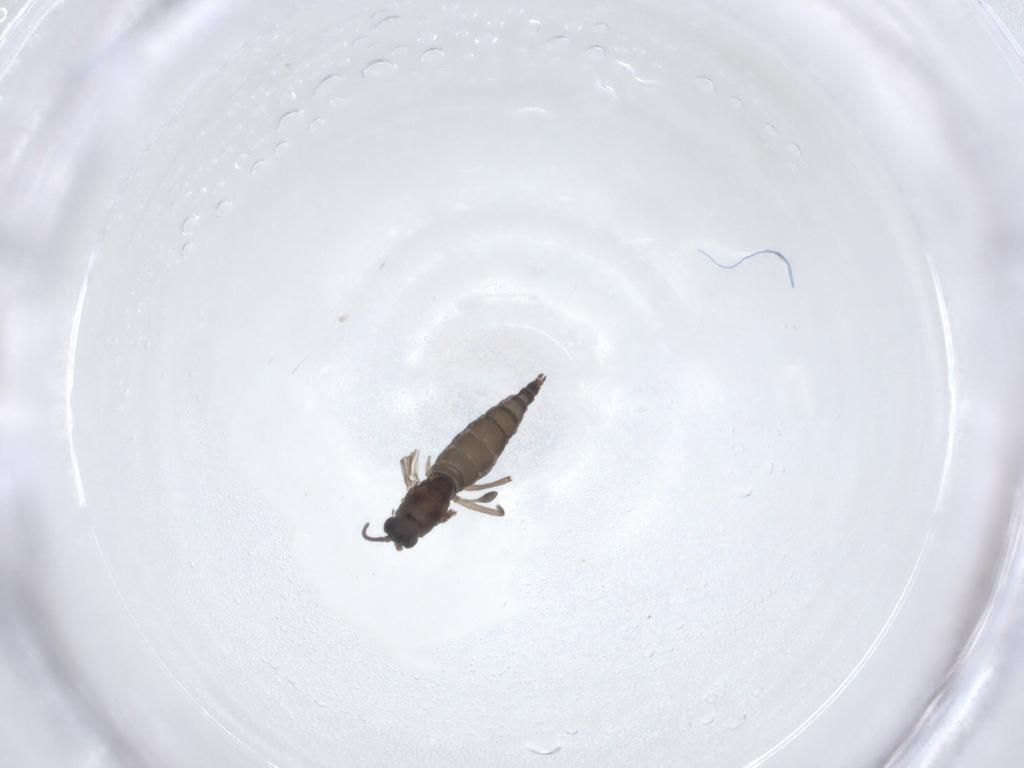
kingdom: Animalia
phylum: Arthropoda
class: Insecta
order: Diptera
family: Sciaridae
